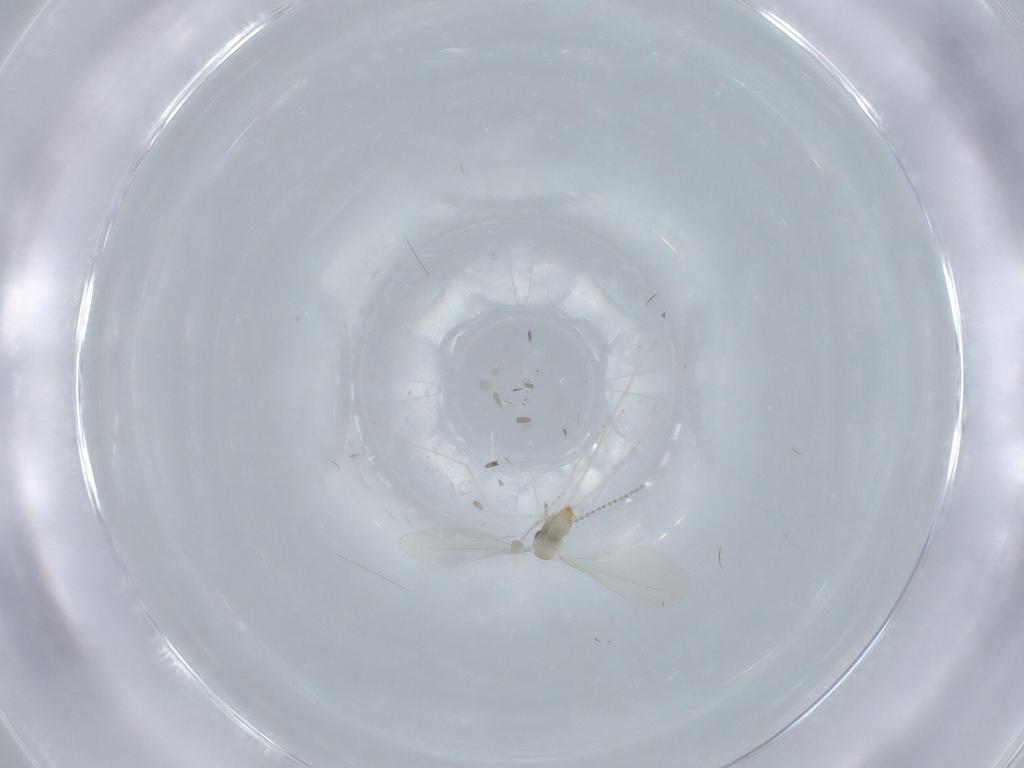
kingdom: Animalia
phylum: Arthropoda
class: Insecta
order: Diptera
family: Cecidomyiidae
